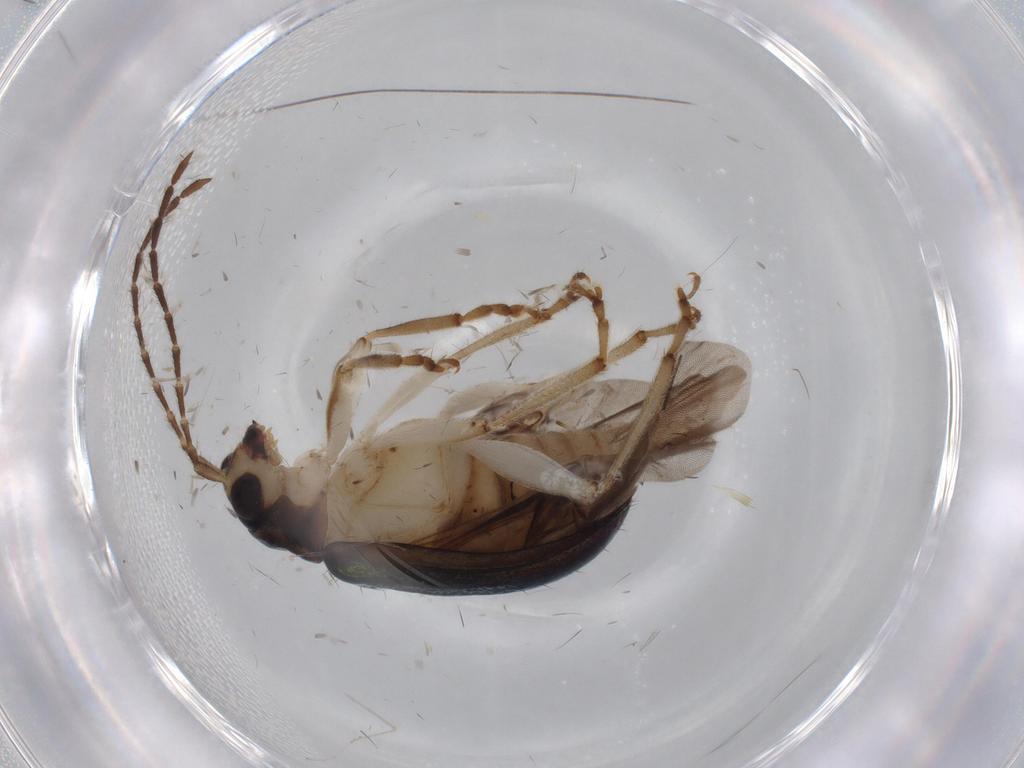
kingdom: Animalia
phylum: Arthropoda
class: Insecta
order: Coleoptera
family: Chrysomelidae
